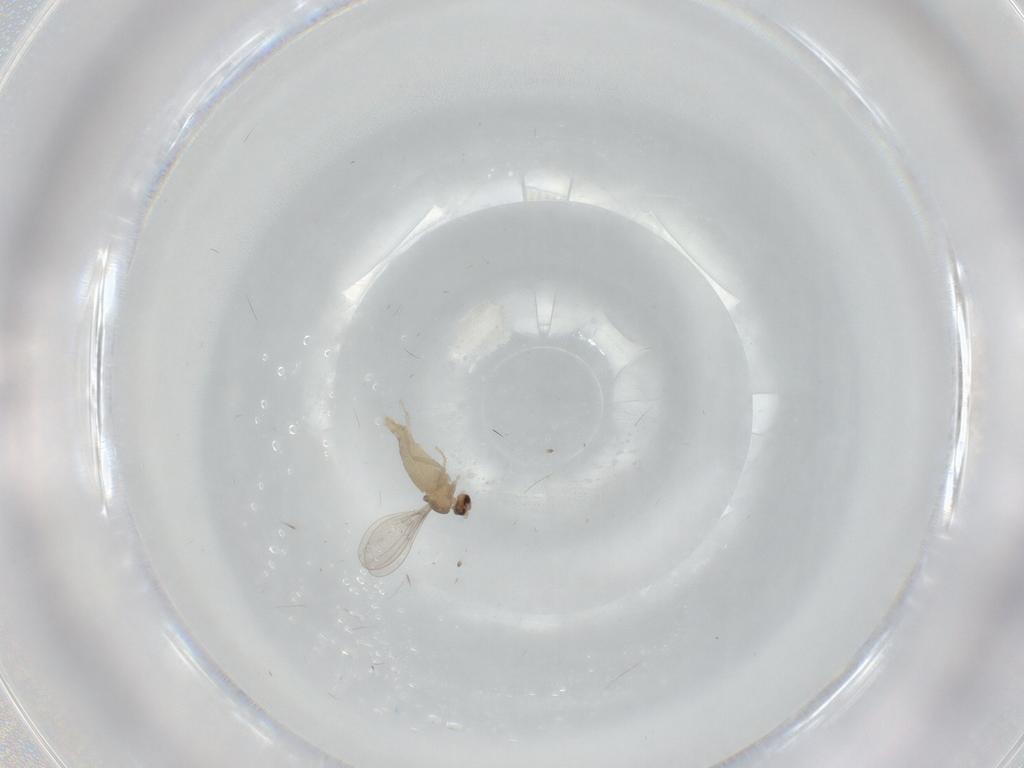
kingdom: Animalia
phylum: Arthropoda
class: Insecta
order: Diptera
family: Cecidomyiidae
